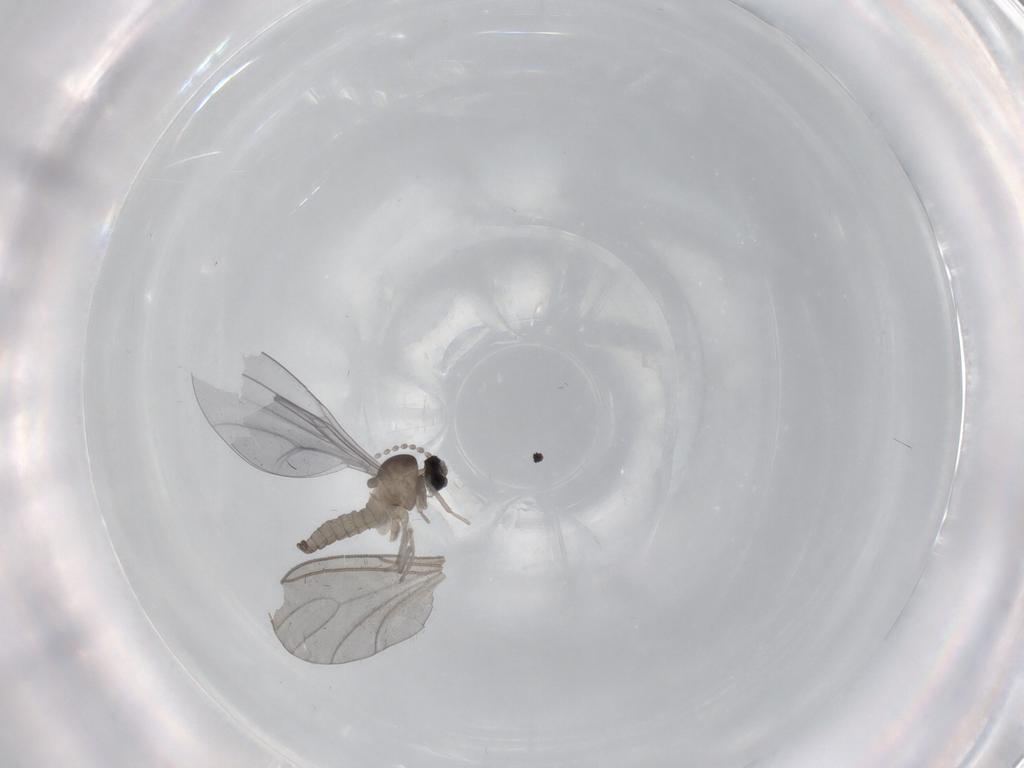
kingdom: Animalia
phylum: Arthropoda
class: Insecta
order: Diptera
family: Cecidomyiidae
